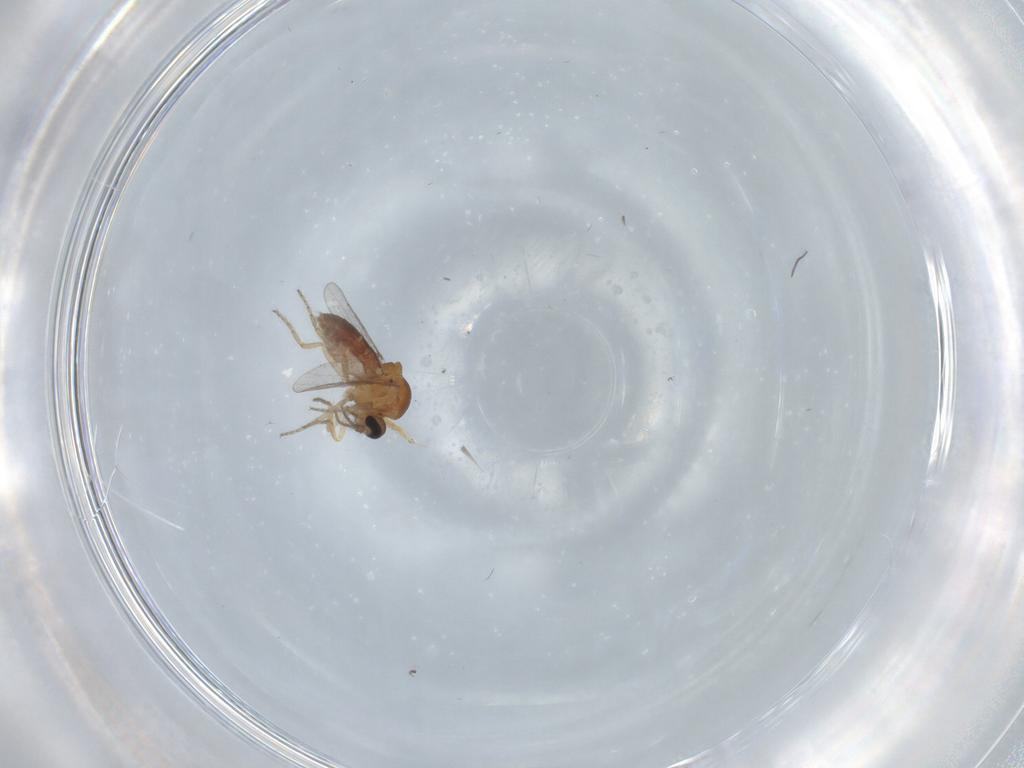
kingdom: Animalia
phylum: Arthropoda
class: Insecta
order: Diptera
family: Ceratopogonidae
